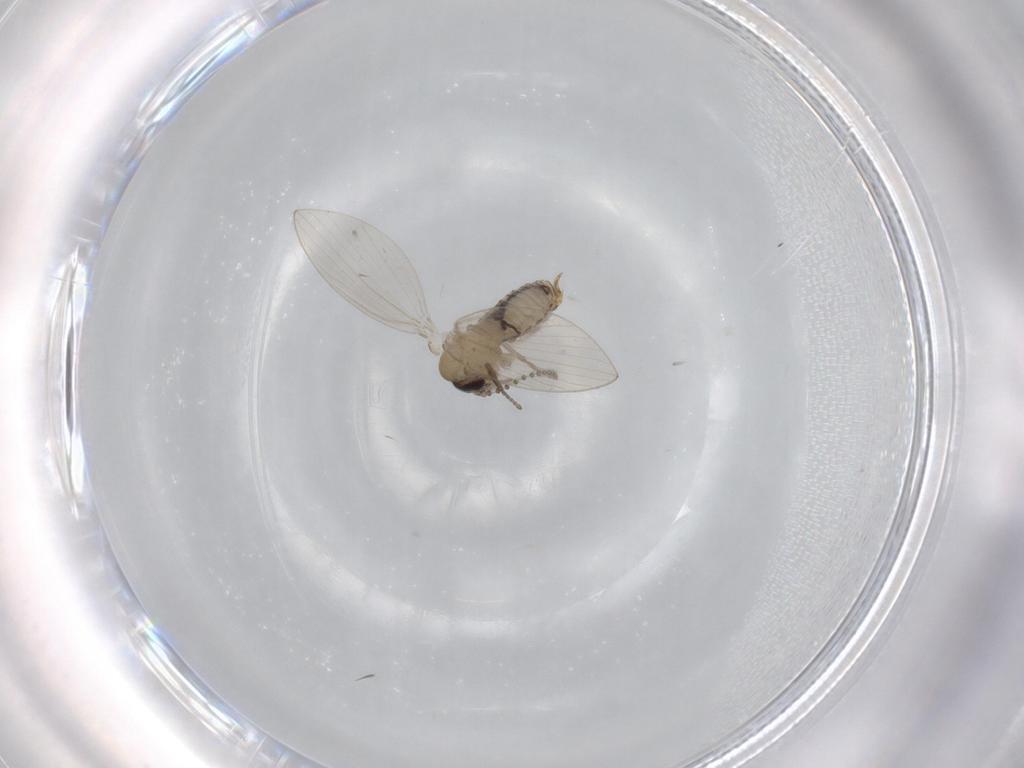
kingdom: Animalia
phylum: Arthropoda
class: Insecta
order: Diptera
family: Psychodidae
